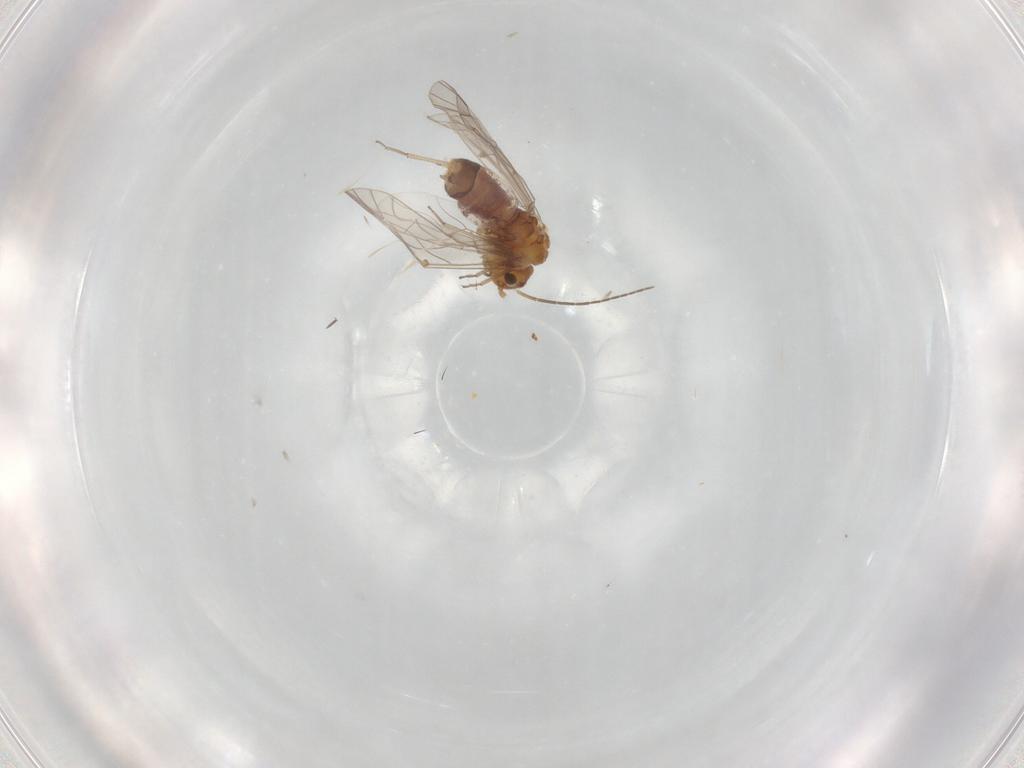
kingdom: Animalia
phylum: Arthropoda
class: Insecta
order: Psocodea
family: Lachesillidae
